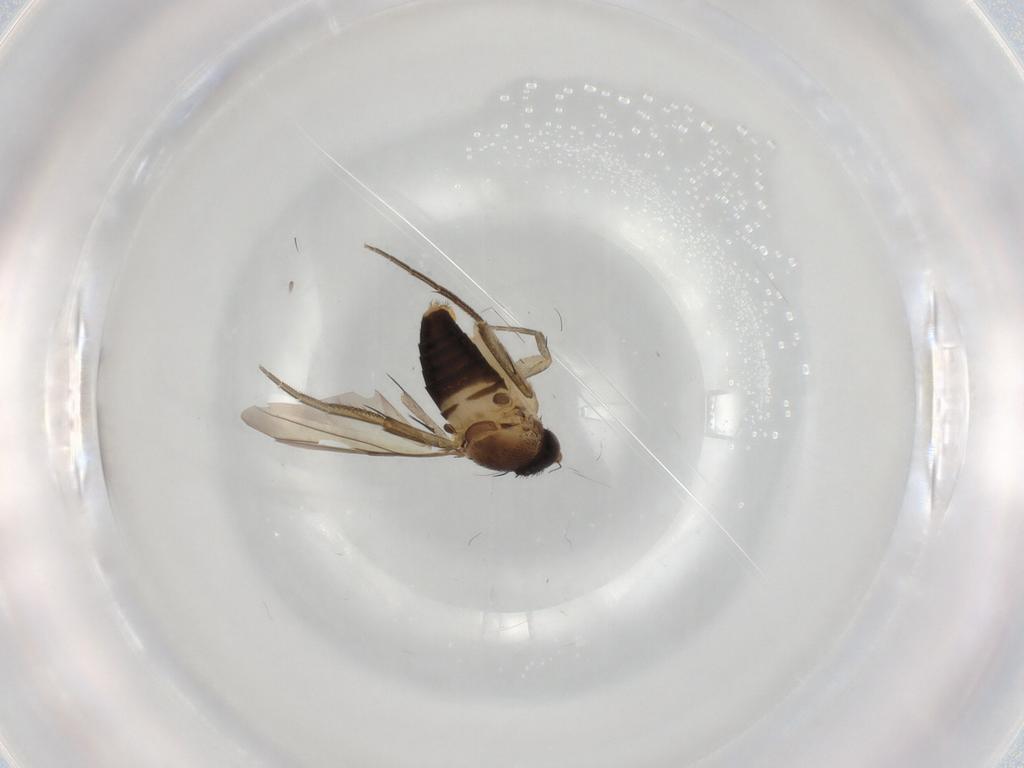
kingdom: Animalia
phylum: Arthropoda
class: Insecta
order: Diptera
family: Phoridae
